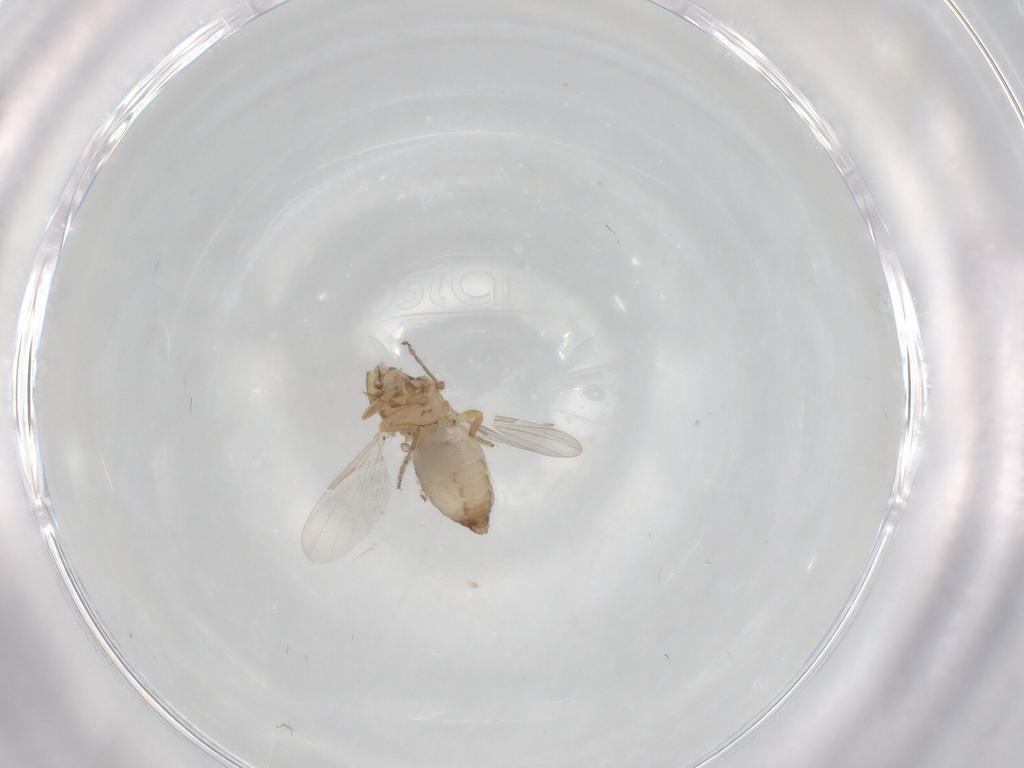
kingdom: Animalia
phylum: Arthropoda
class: Insecta
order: Diptera
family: Ceratopogonidae
